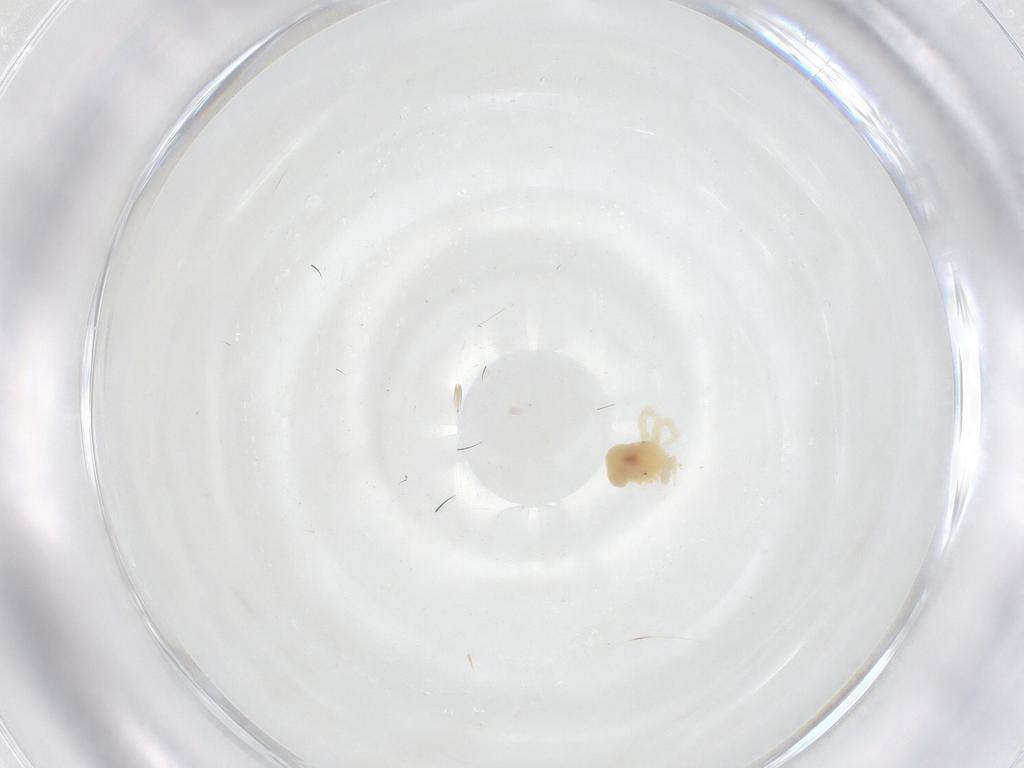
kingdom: Animalia
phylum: Arthropoda
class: Arachnida
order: Trombidiformes
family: Anystidae
